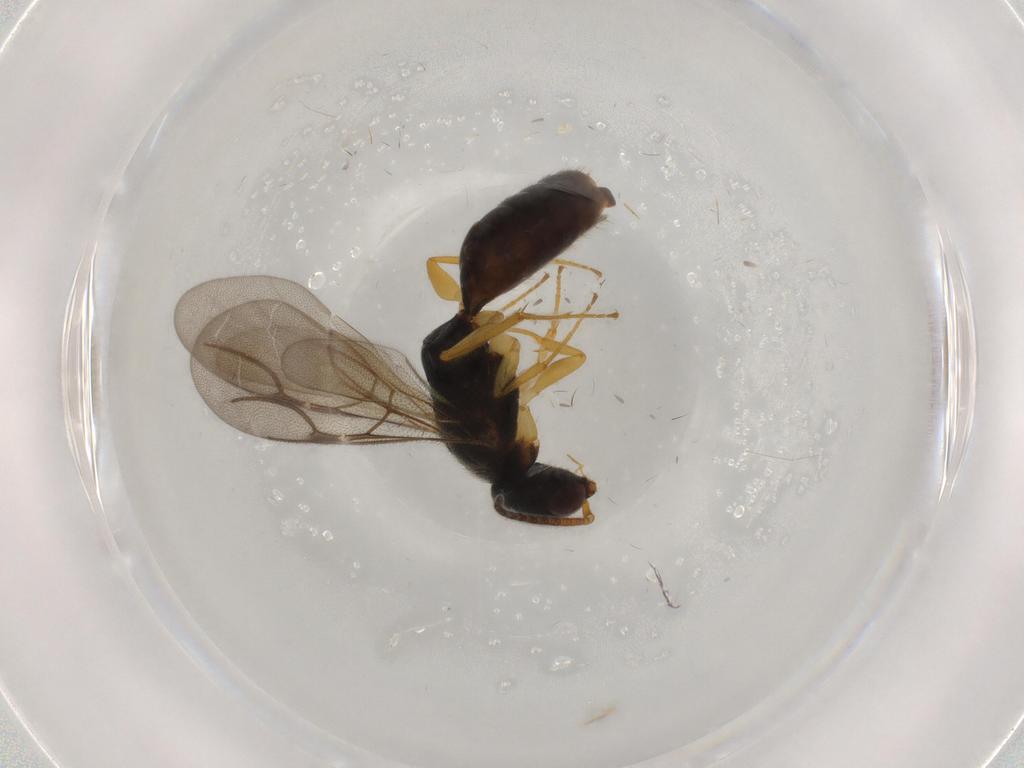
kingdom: Animalia
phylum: Arthropoda
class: Insecta
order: Hymenoptera
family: Bethylidae
